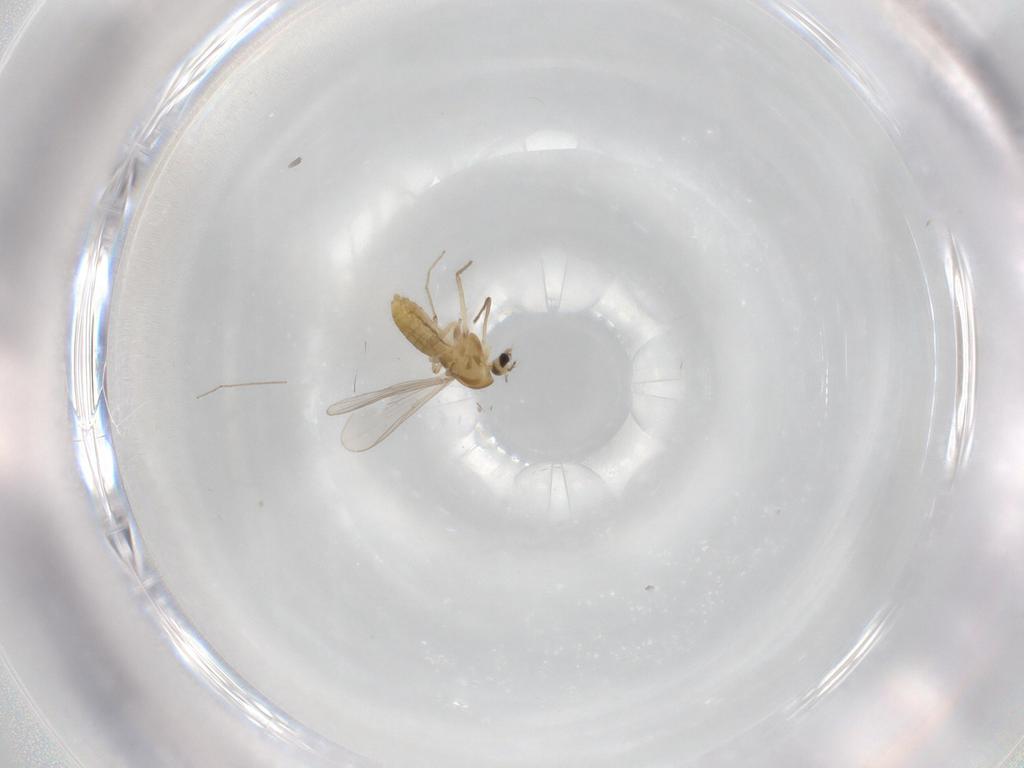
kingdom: Animalia
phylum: Arthropoda
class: Insecta
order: Diptera
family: Chironomidae
